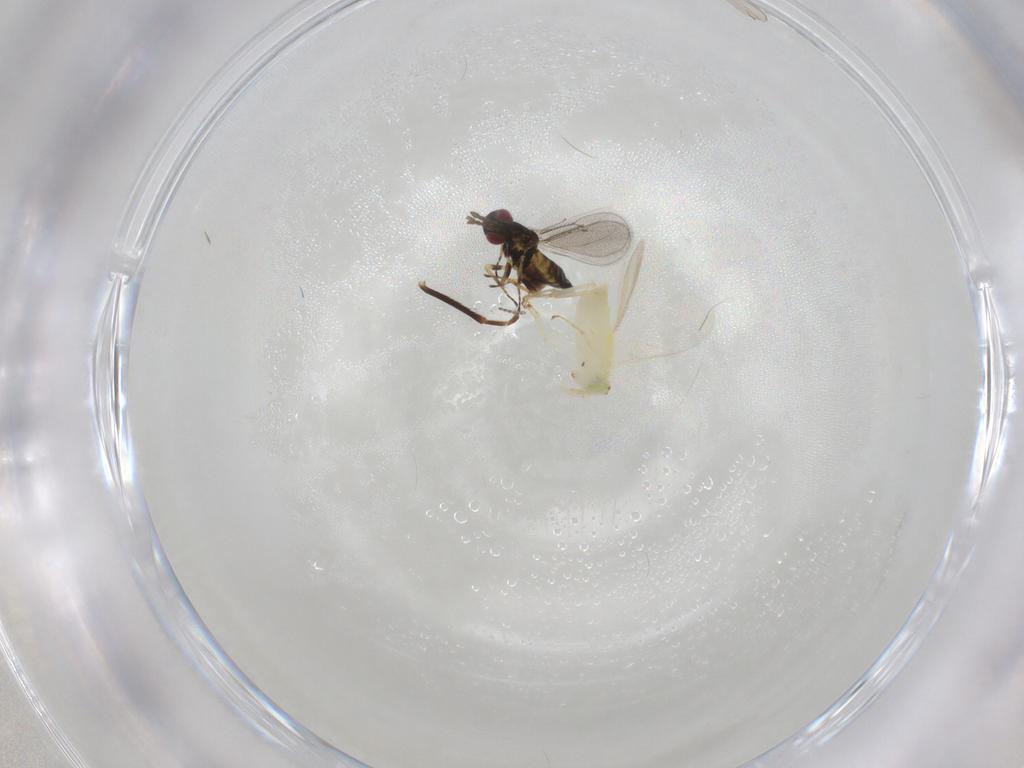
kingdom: Animalia
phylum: Arthropoda
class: Insecta
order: Hymenoptera
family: Eulophidae
